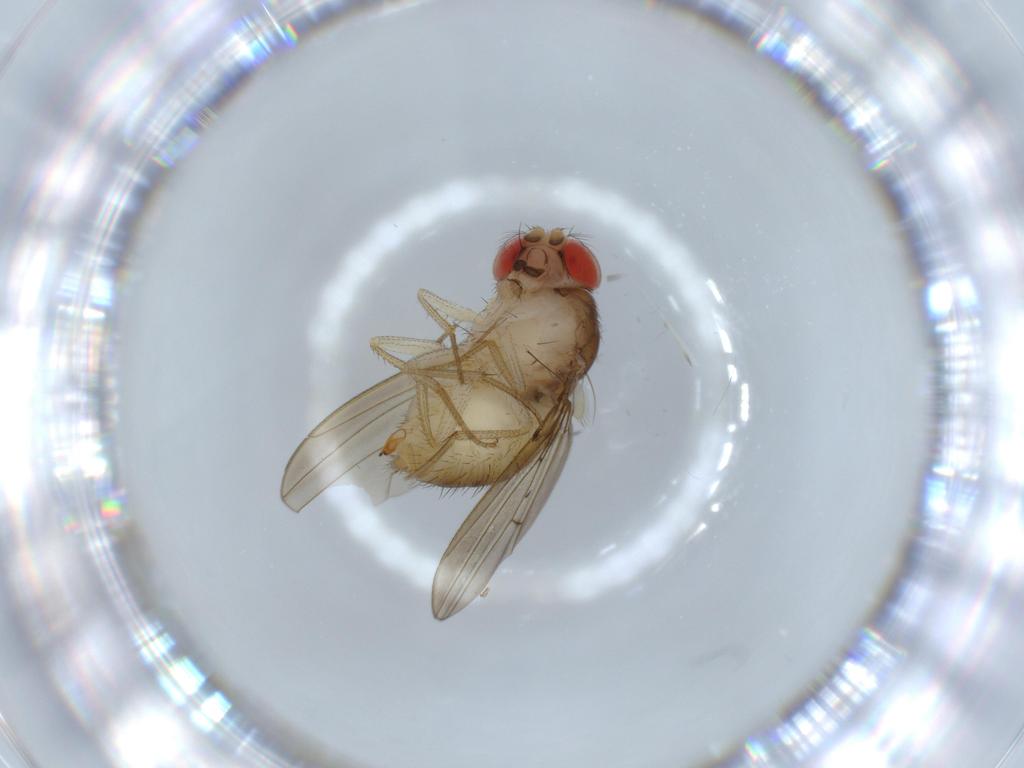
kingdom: Animalia
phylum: Arthropoda
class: Insecta
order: Diptera
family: Drosophilidae
